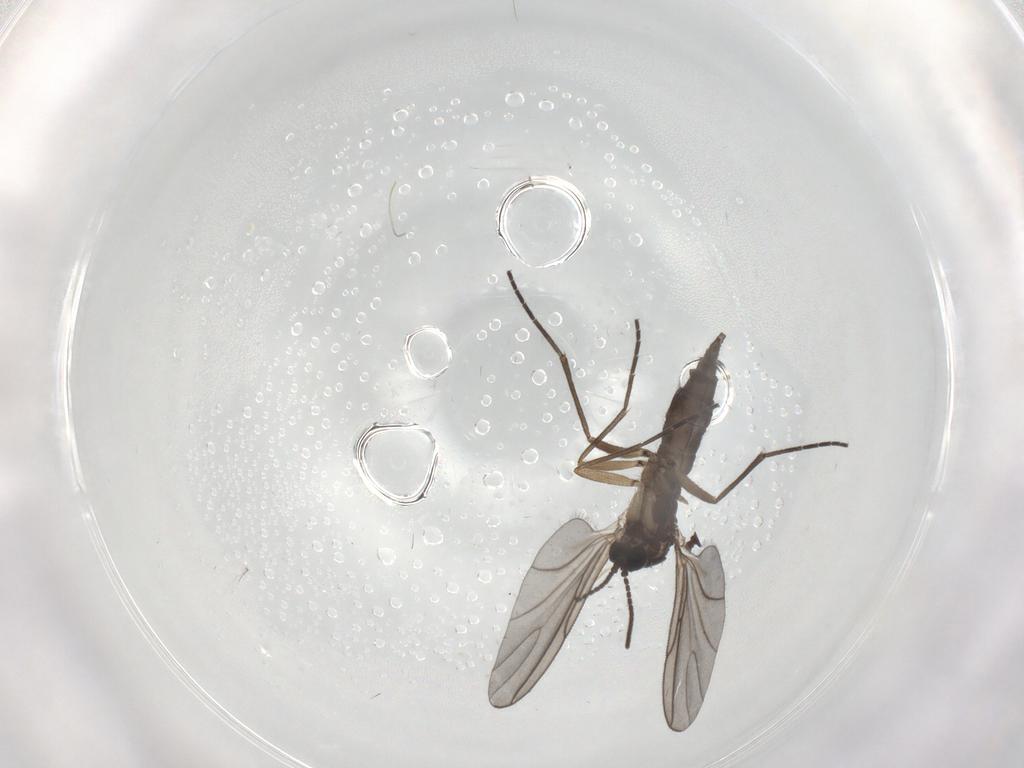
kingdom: Animalia
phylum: Arthropoda
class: Insecta
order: Diptera
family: Sciaridae
